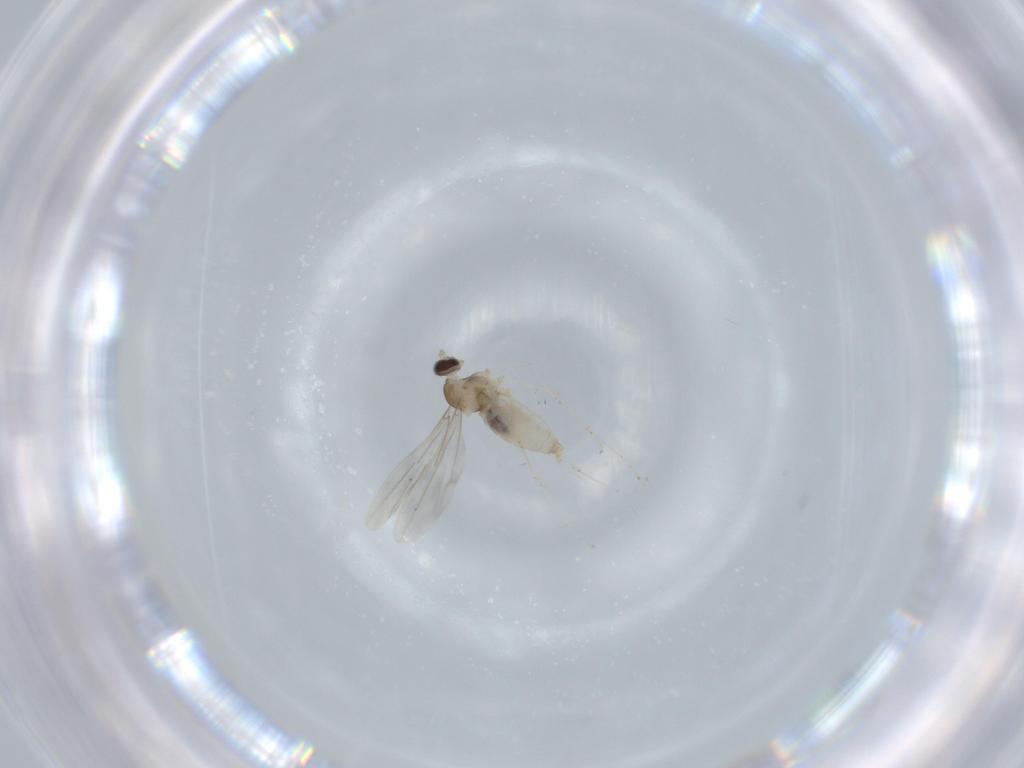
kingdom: Animalia
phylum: Arthropoda
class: Insecta
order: Diptera
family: Cecidomyiidae
